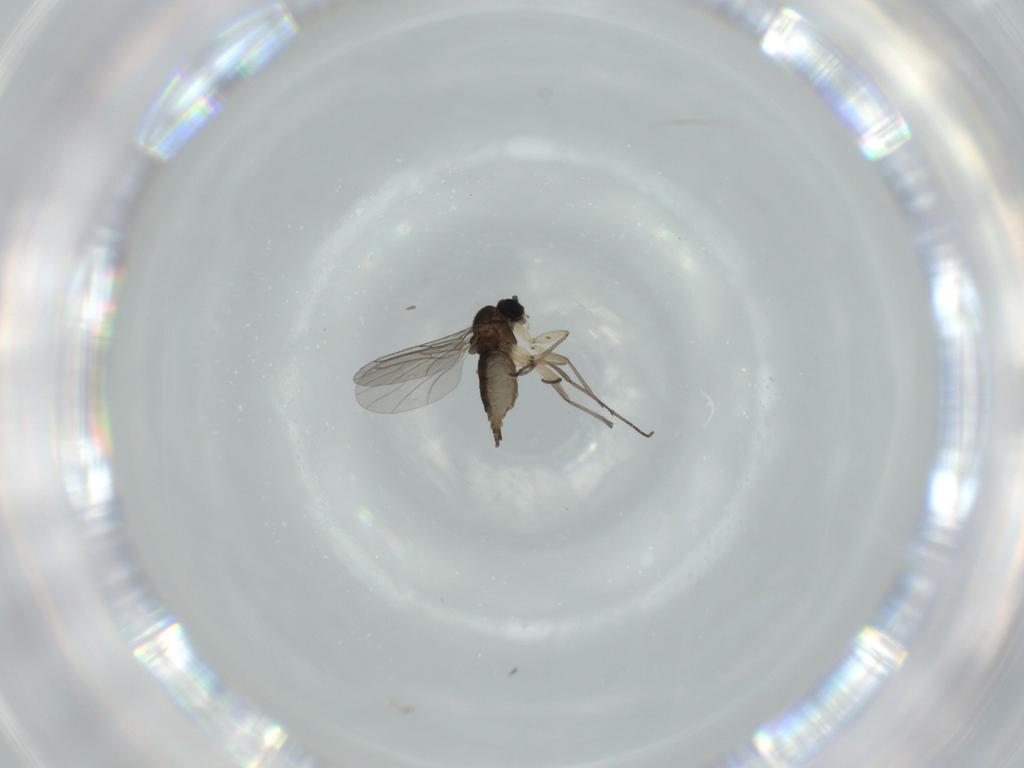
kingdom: Animalia
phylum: Arthropoda
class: Insecta
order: Diptera
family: Sciaridae
